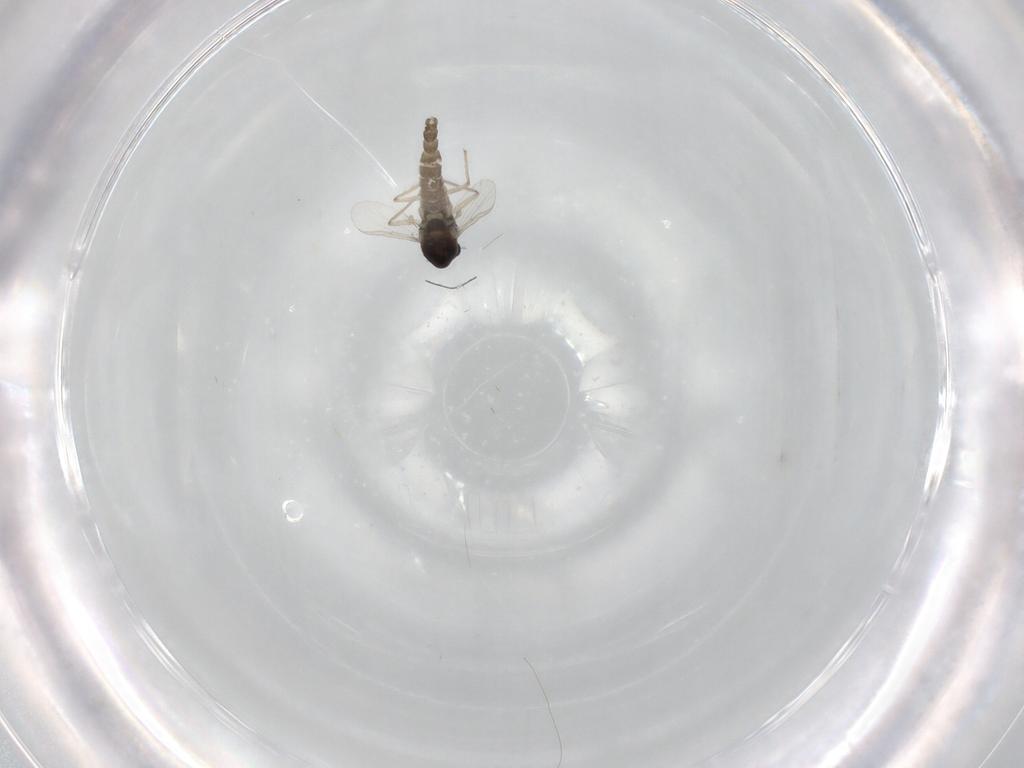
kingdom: Animalia
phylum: Arthropoda
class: Insecta
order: Diptera
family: Chironomidae
